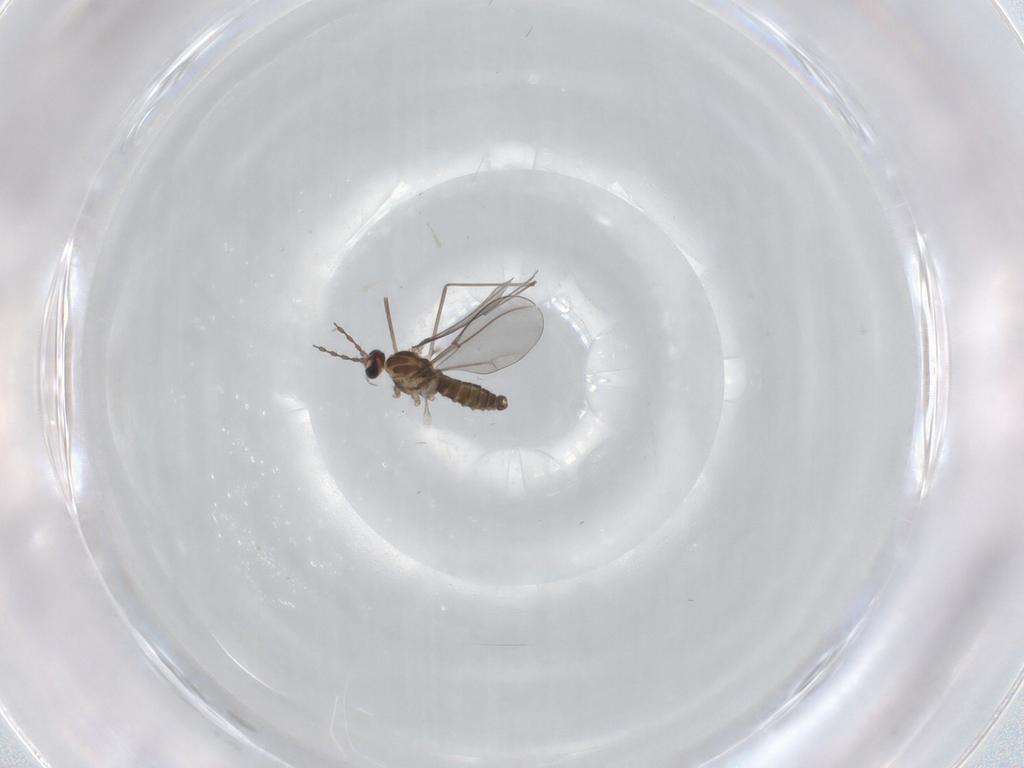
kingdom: Animalia
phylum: Arthropoda
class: Insecta
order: Diptera
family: Cecidomyiidae
